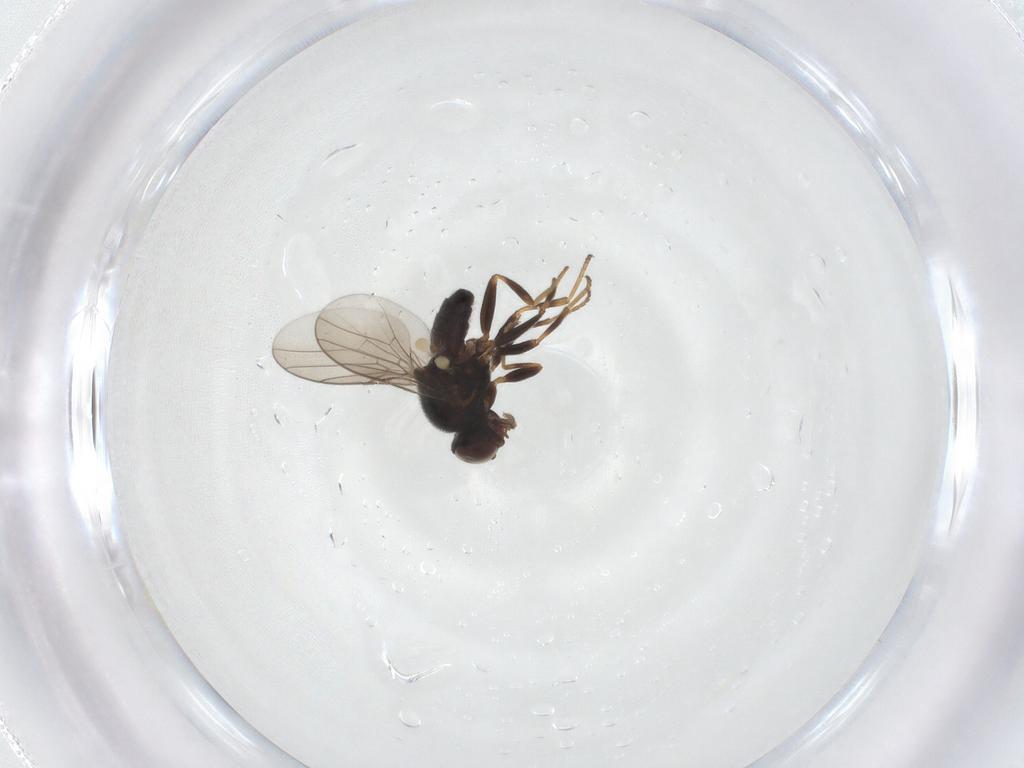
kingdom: Animalia
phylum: Arthropoda
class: Insecta
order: Diptera
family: Chloropidae
